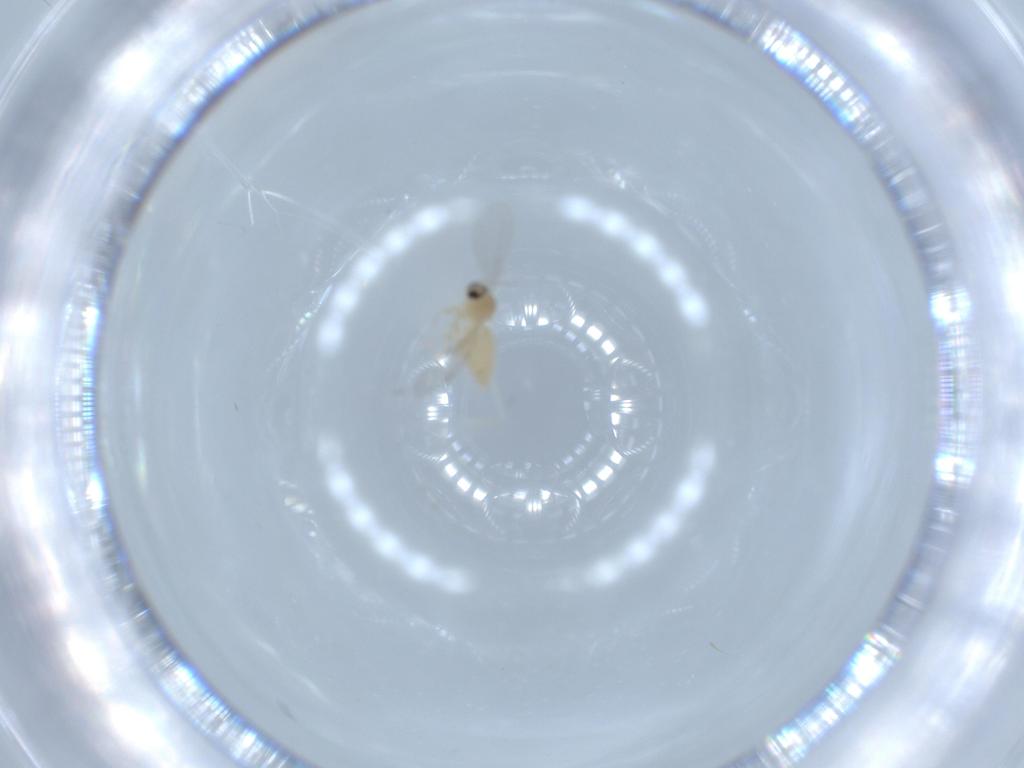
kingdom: Animalia
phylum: Arthropoda
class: Insecta
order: Diptera
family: Cecidomyiidae
